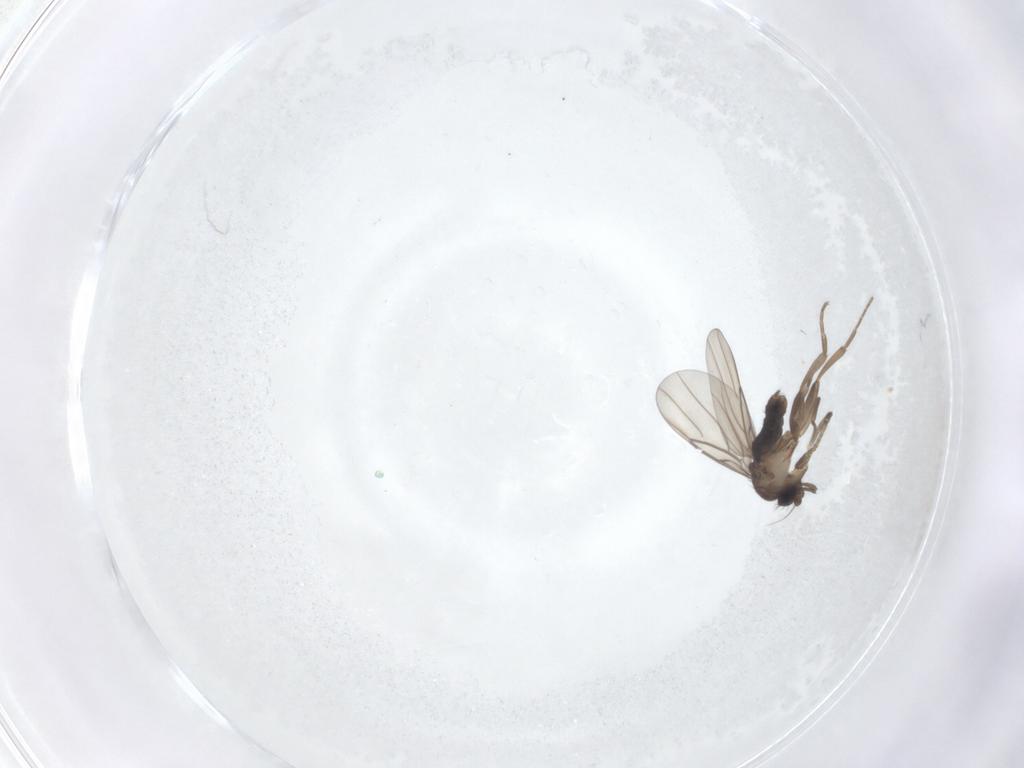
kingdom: Animalia
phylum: Arthropoda
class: Insecta
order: Diptera
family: Phoridae
